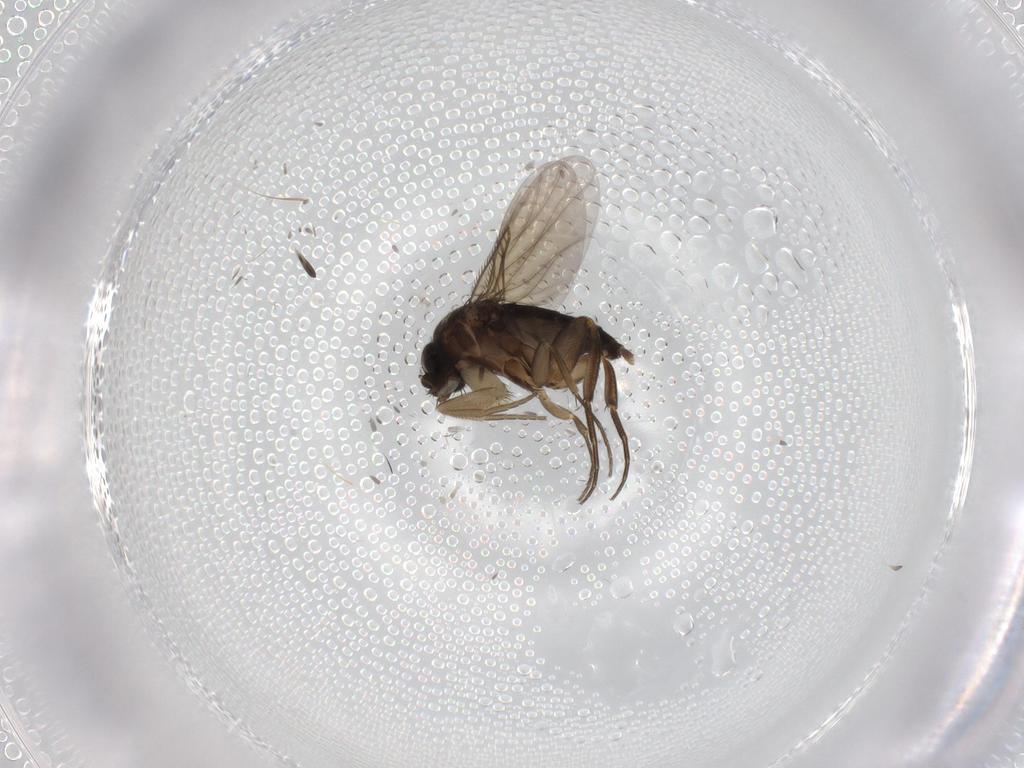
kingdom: Animalia
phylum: Arthropoda
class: Insecta
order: Diptera
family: Phoridae
